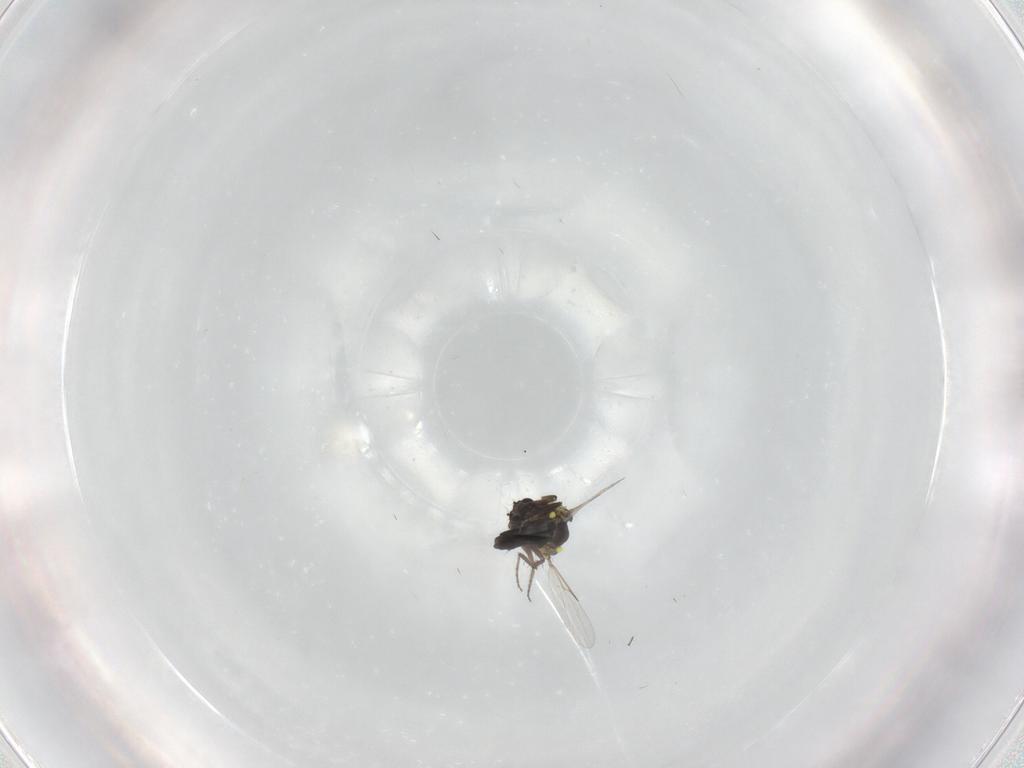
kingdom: Animalia
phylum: Arthropoda
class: Insecta
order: Diptera
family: Ceratopogonidae
